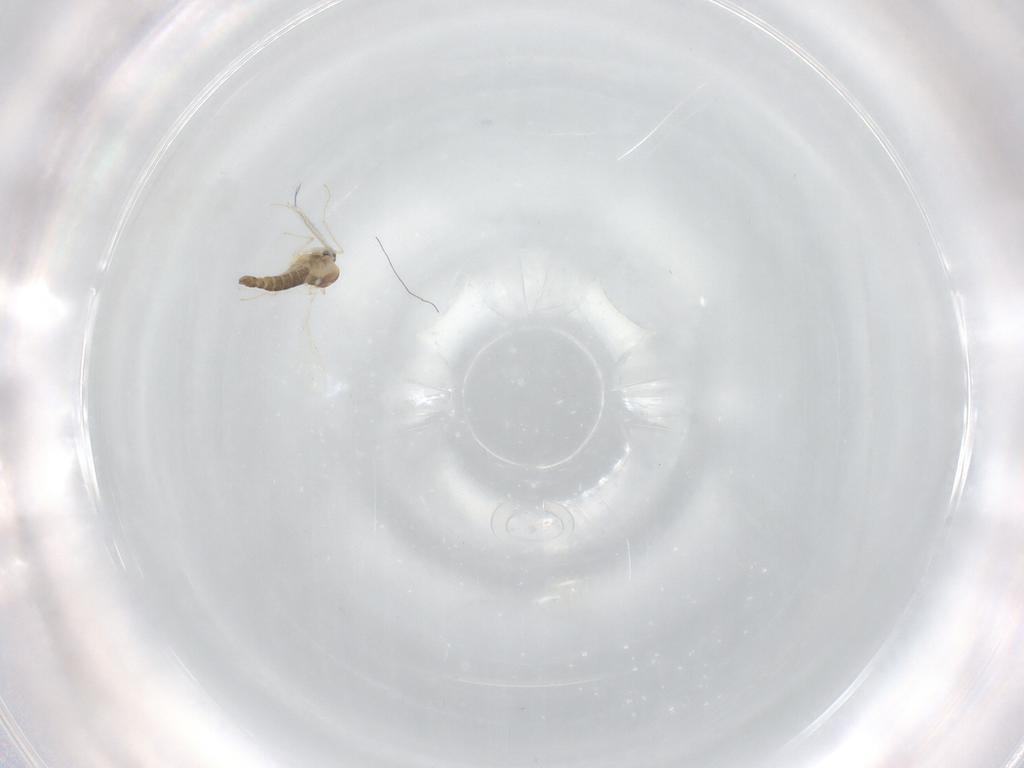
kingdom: Animalia
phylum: Arthropoda
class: Insecta
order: Diptera
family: Chironomidae
